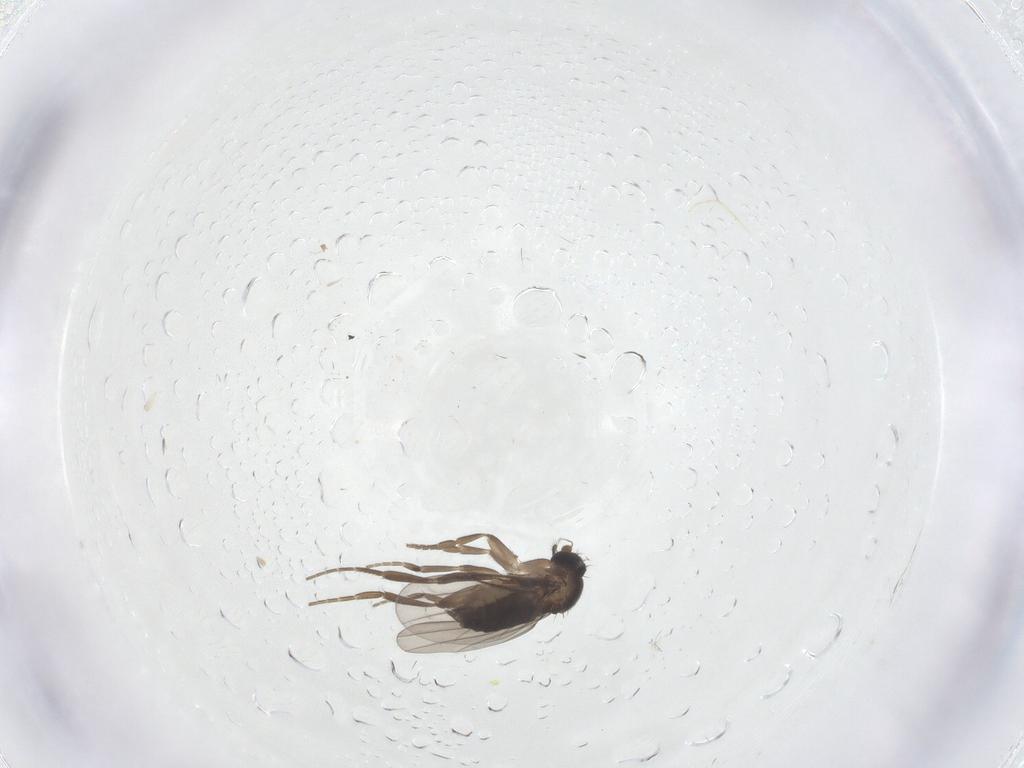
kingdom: Animalia
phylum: Arthropoda
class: Insecta
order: Diptera
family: Phoridae
